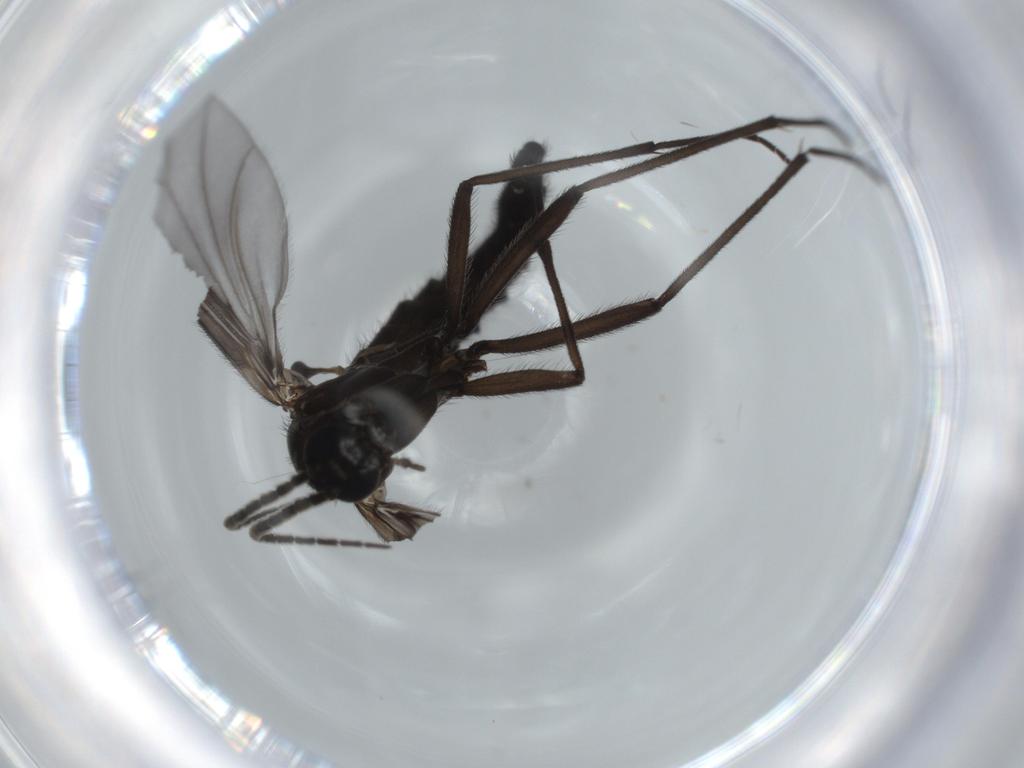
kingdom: Animalia
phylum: Arthropoda
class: Insecta
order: Diptera
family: Sciaridae
